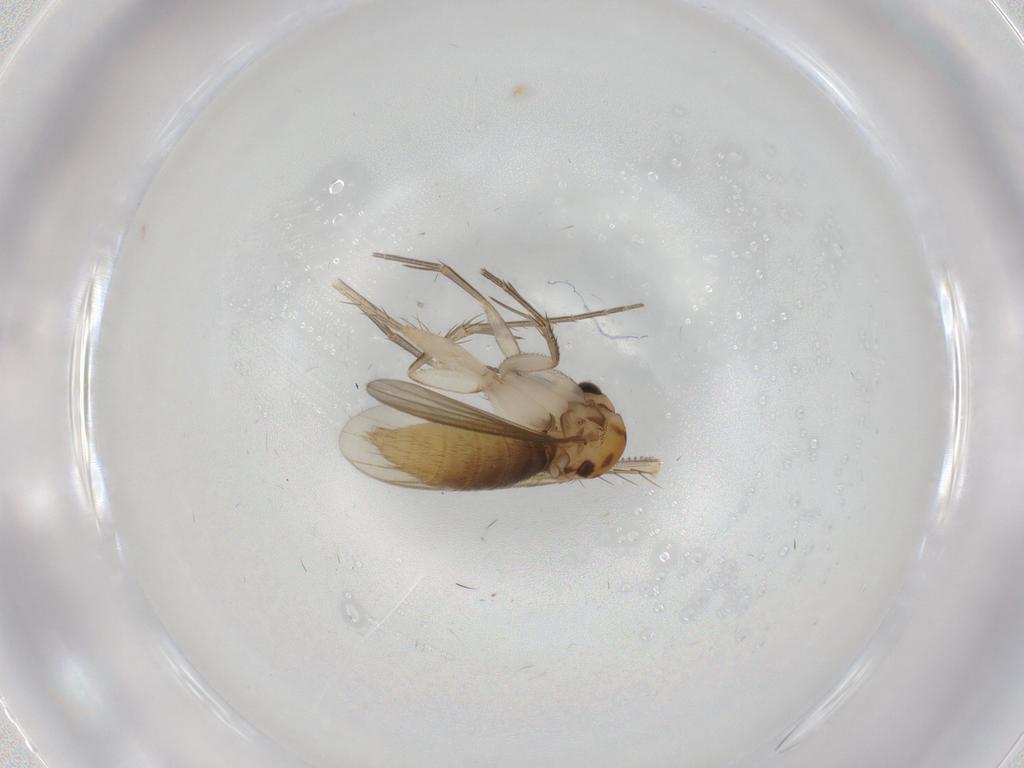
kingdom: Animalia
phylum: Arthropoda
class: Insecta
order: Diptera
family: Mycetophilidae
